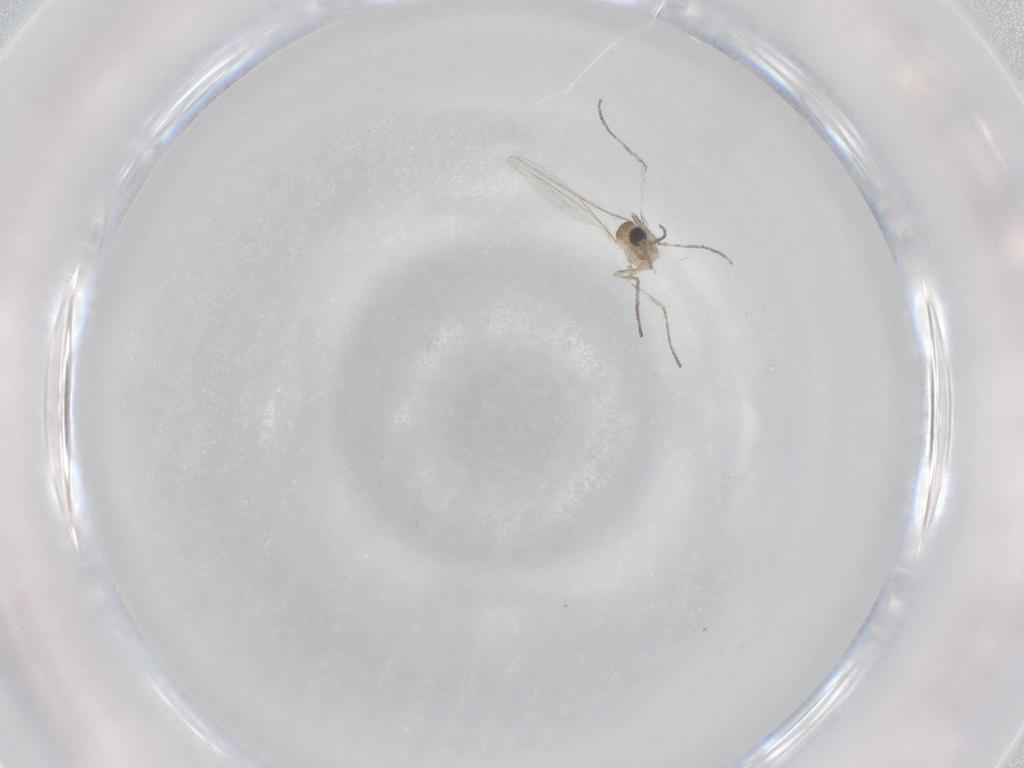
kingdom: Animalia
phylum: Arthropoda
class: Insecta
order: Diptera
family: Cecidomyiidae
